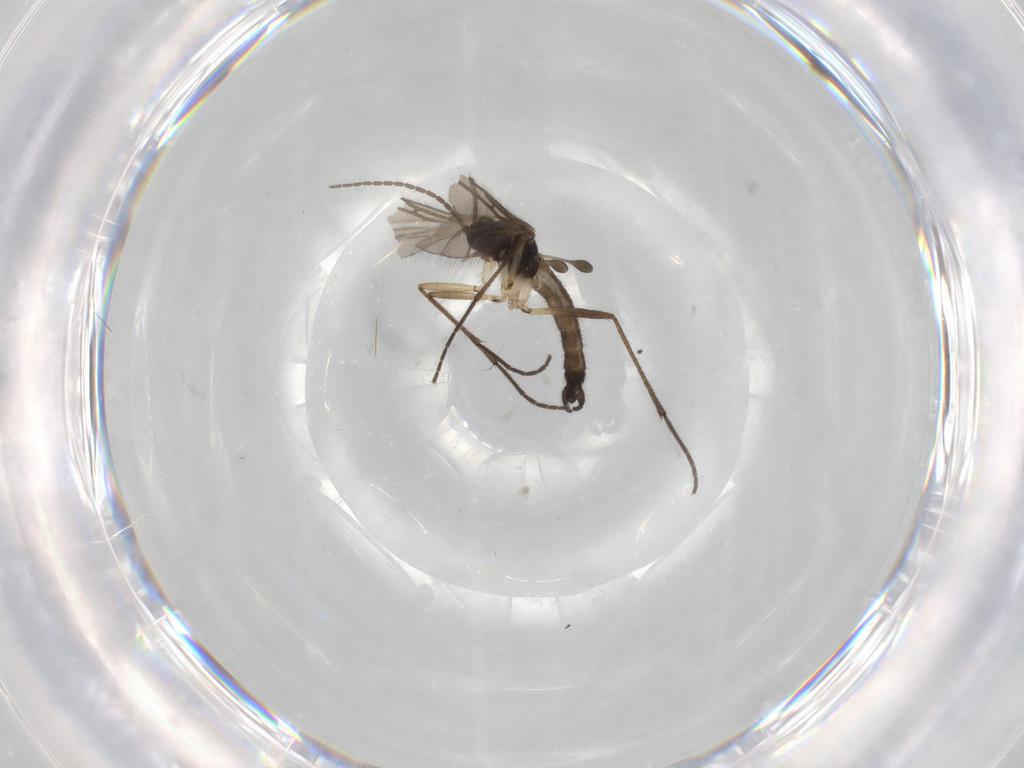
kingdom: Animalia
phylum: Arthropoda
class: Insecta
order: Diptera
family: Sciaridae
